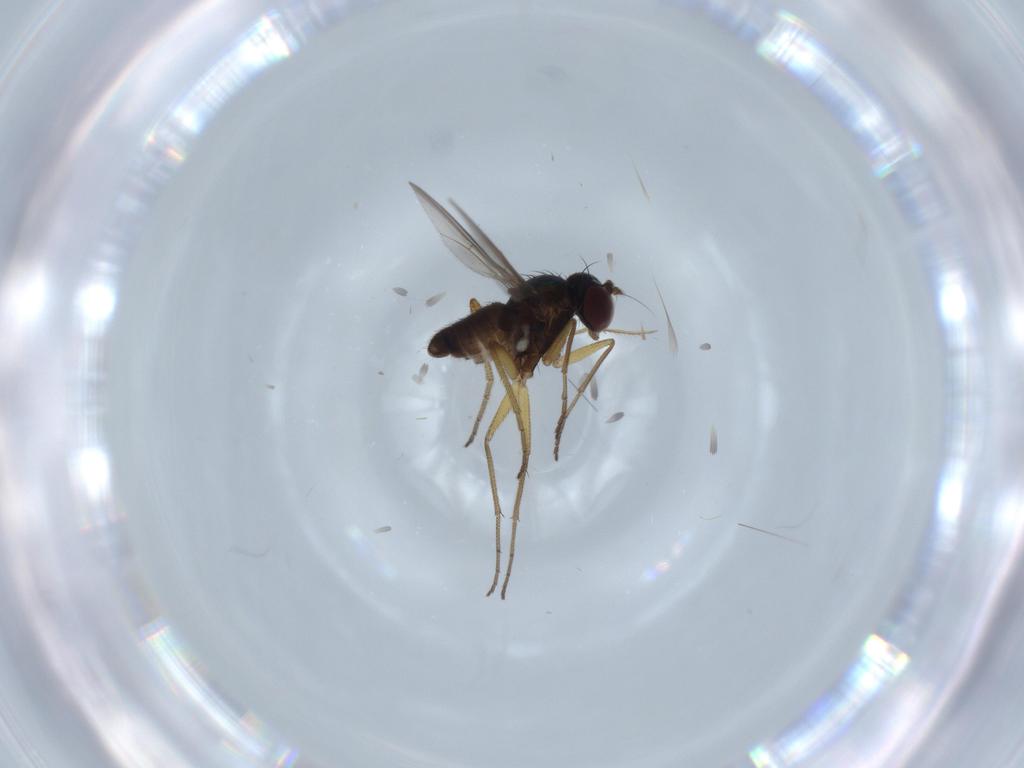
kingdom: Animalia
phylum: Arthropoda
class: Insecta
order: Diptera
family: Dolichopodidae
